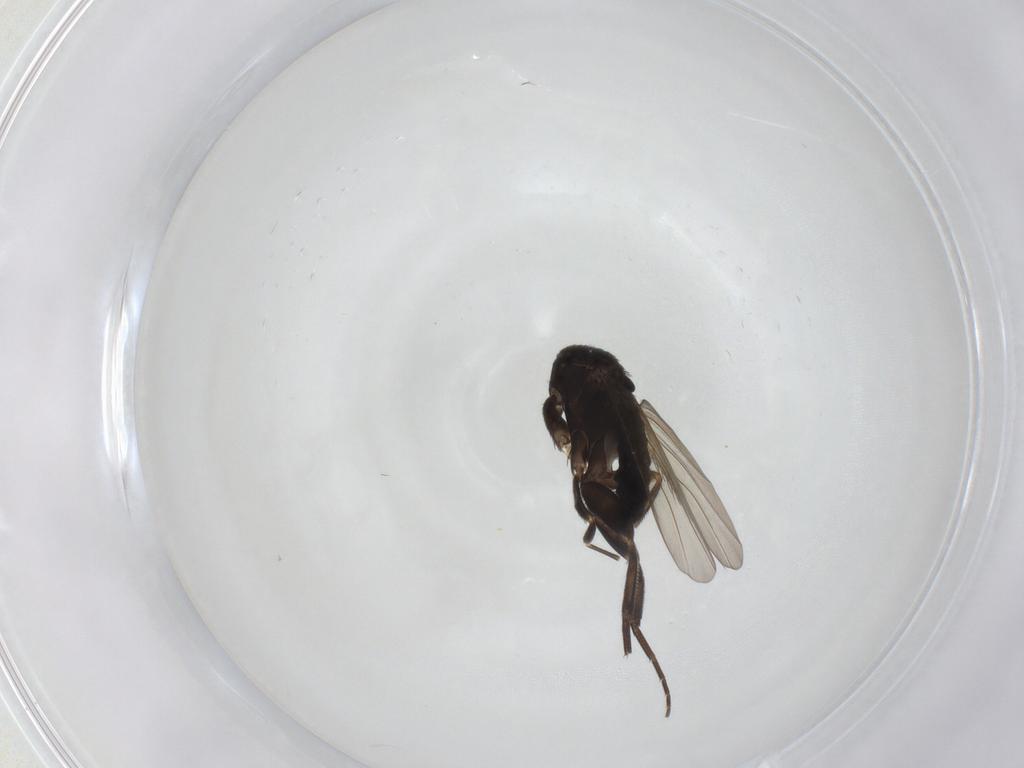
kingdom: Animalia
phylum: Arthropoda
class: Insecta
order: Diptera
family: Phoridae
